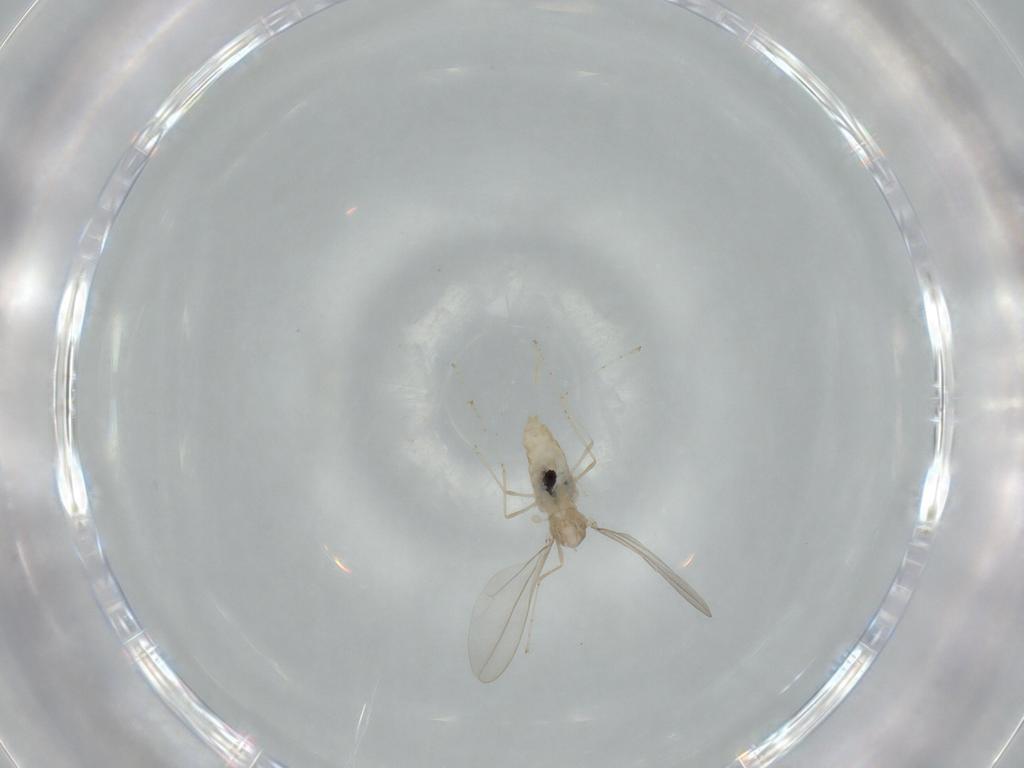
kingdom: Animalia
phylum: Arthropoda
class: Insecta
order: Diptera
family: Cecidomyiidae
